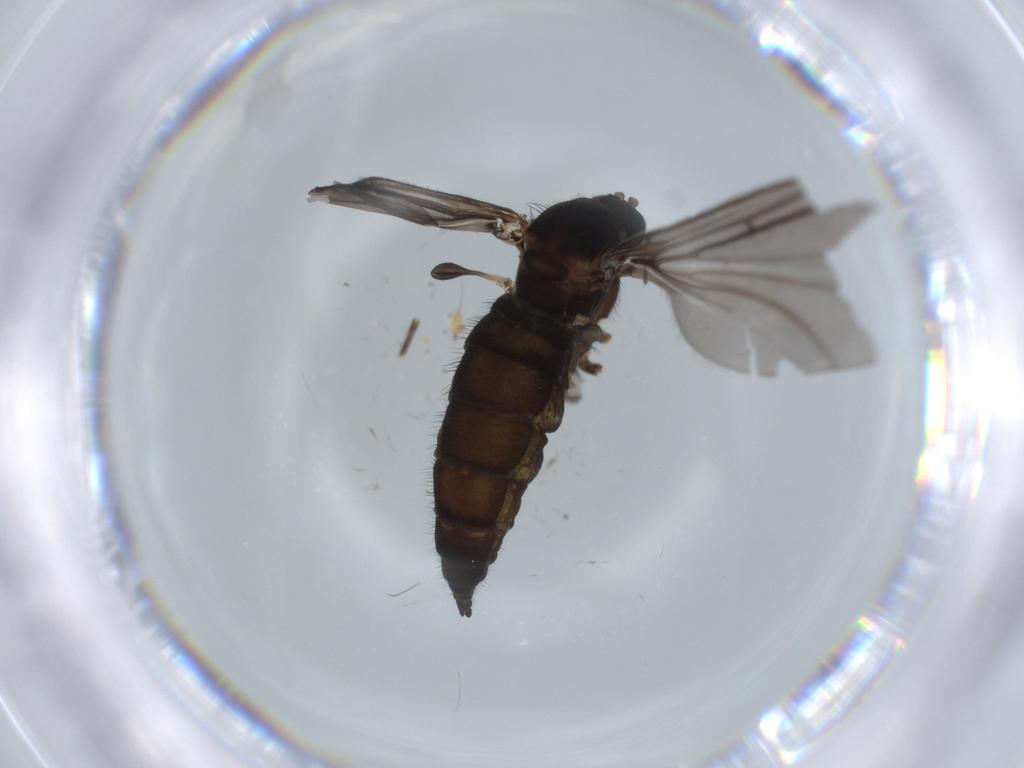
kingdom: Animalia
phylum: Arthropoda
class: Insecta
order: Diptera
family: Sciaridae
